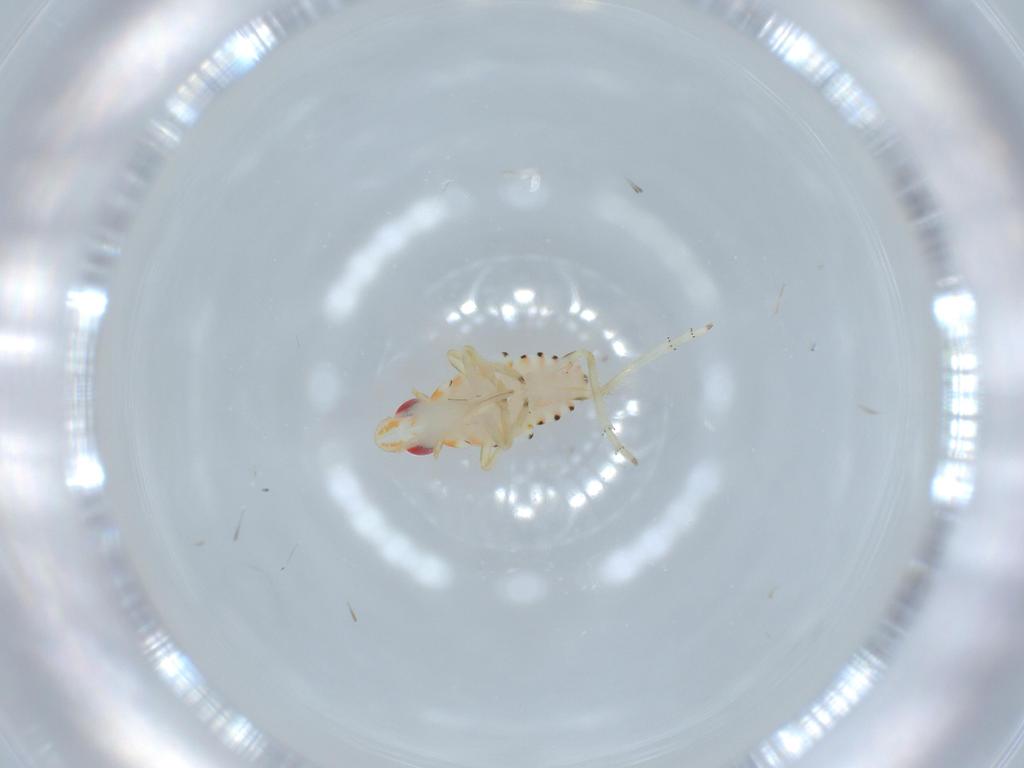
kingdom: Animalia
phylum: Arthropoda
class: Insecta
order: Hemiptera
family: Tropiduchidae
